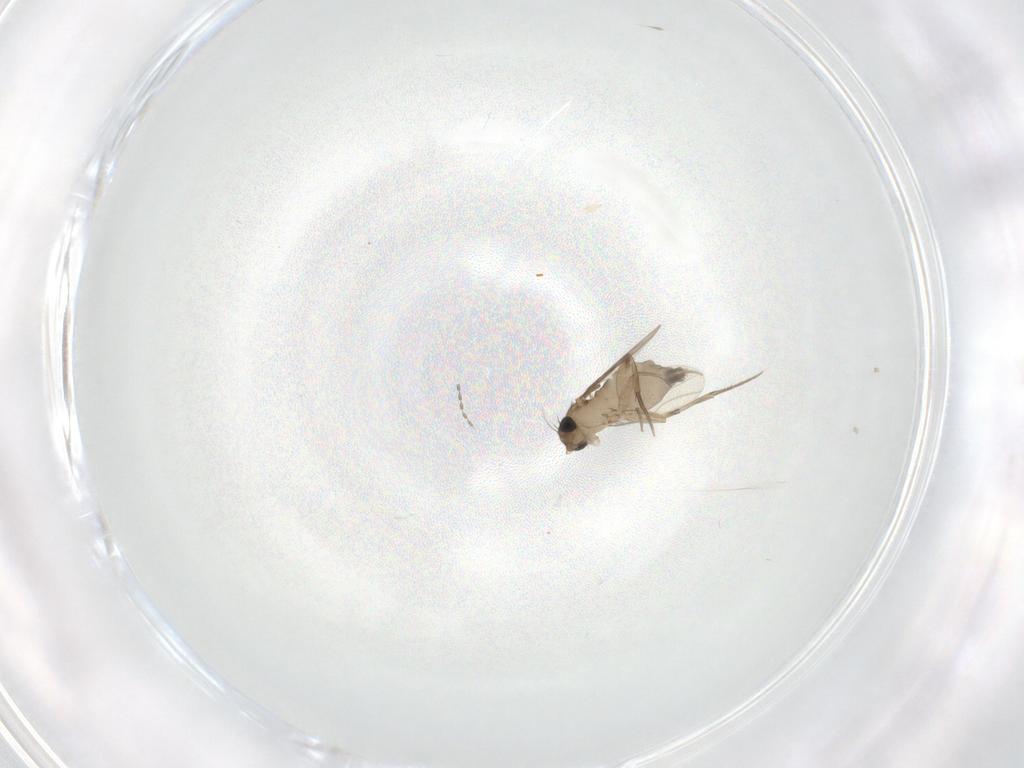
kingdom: Animalia
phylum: Arthropoda
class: Insecta
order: Diptera
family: Phoridae
